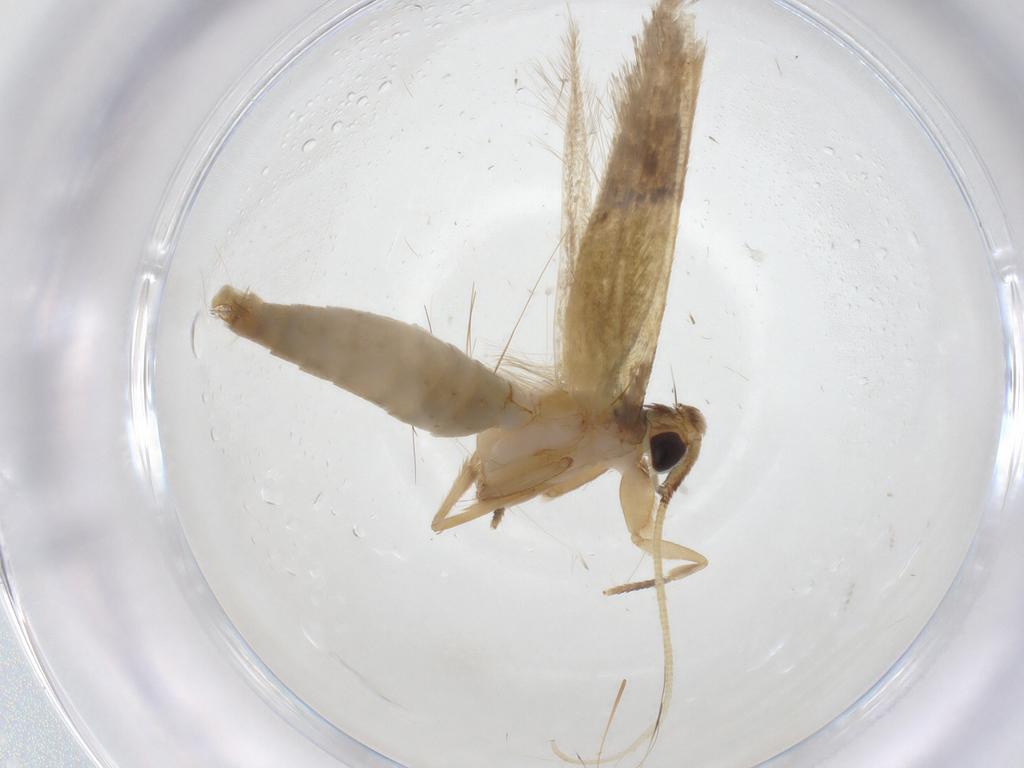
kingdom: Animalia
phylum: Arthropoda
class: Insecta
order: Lepidoptera
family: Tineidae
